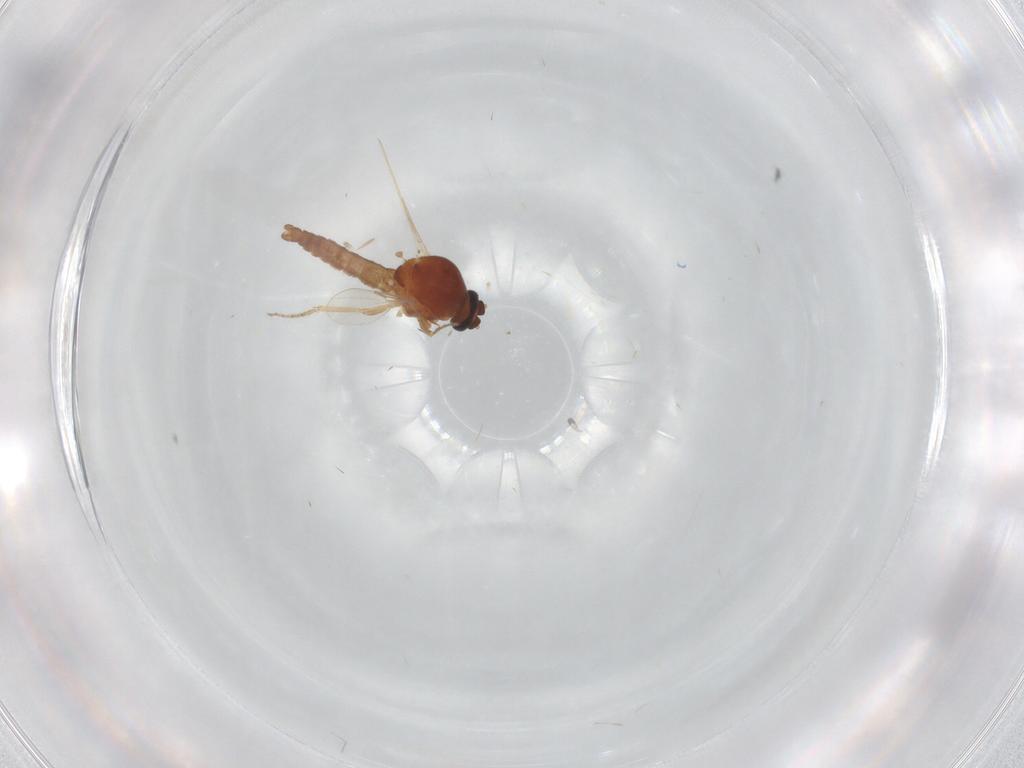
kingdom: Animalia
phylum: Arthropoda
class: Insecta
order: Diptera
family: Ceratopogonidae
